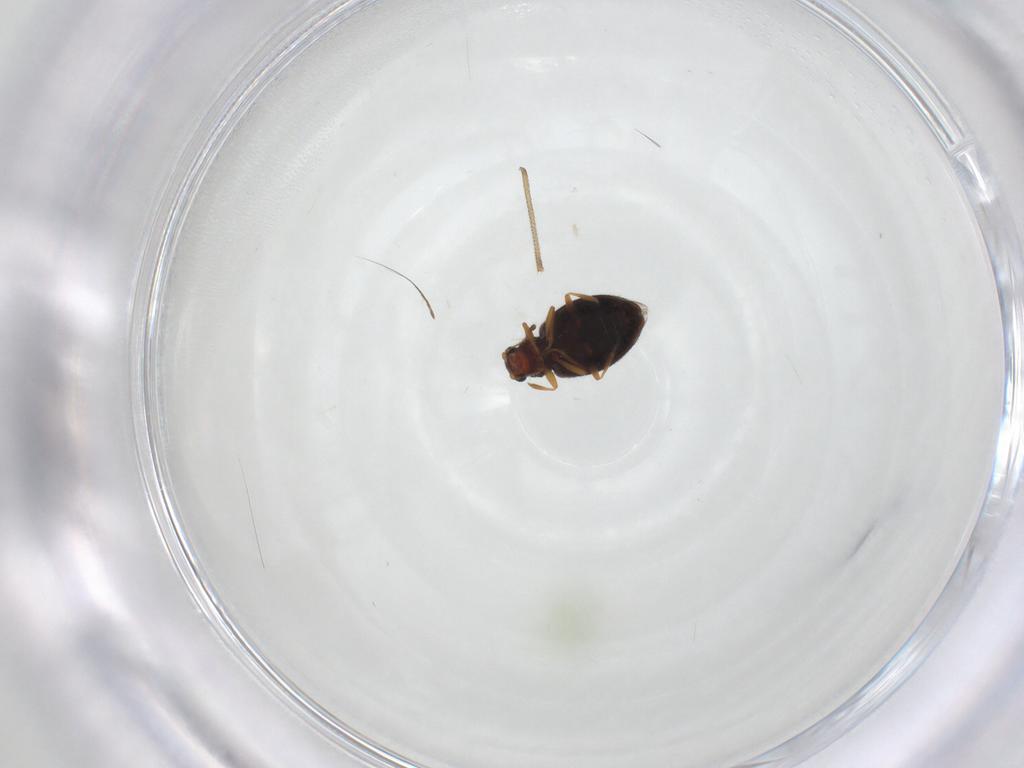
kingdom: Animalia
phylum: Arthropoda
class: Insecta
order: Coleoptera
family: Latridiidae
